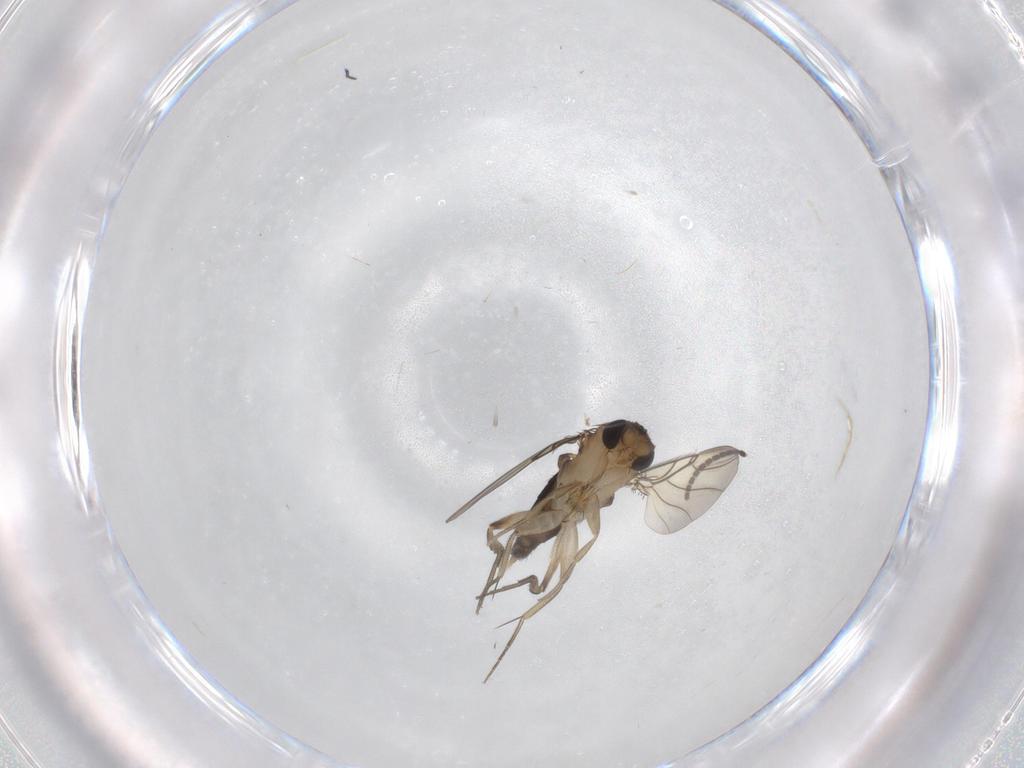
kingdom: Animalia
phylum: Arthropoda
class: Insecta
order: Diptera
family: Phoridae
